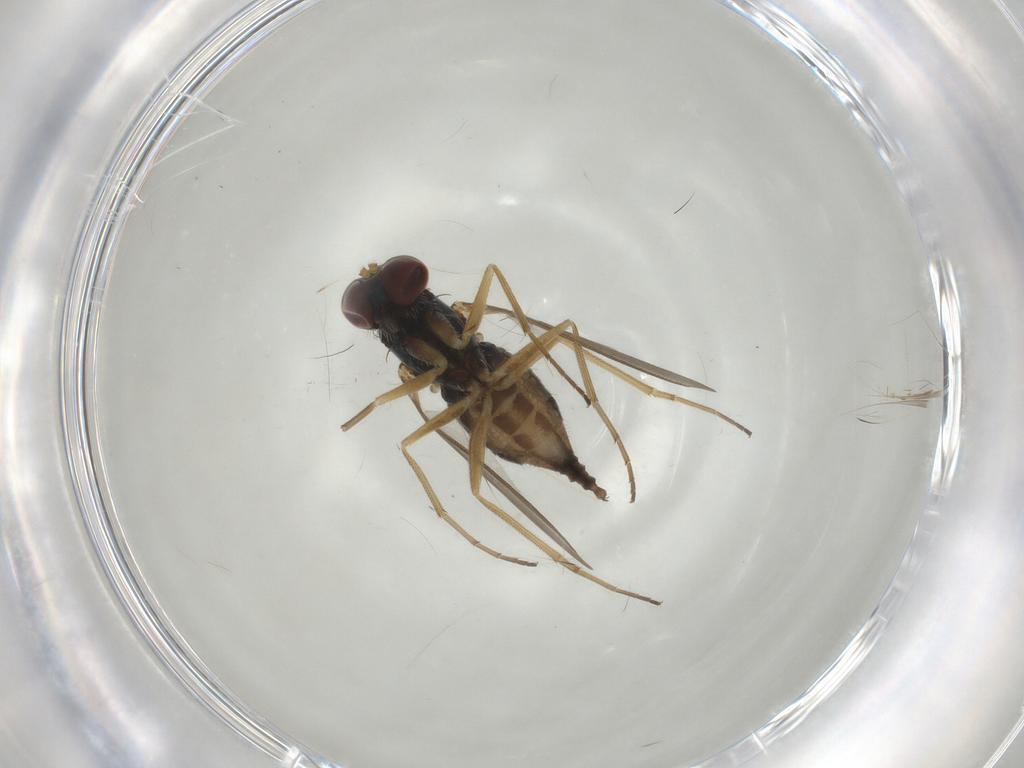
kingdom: Animalia
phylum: Arthropoda
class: Insecta
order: Diptera
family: Dolichopodidae
